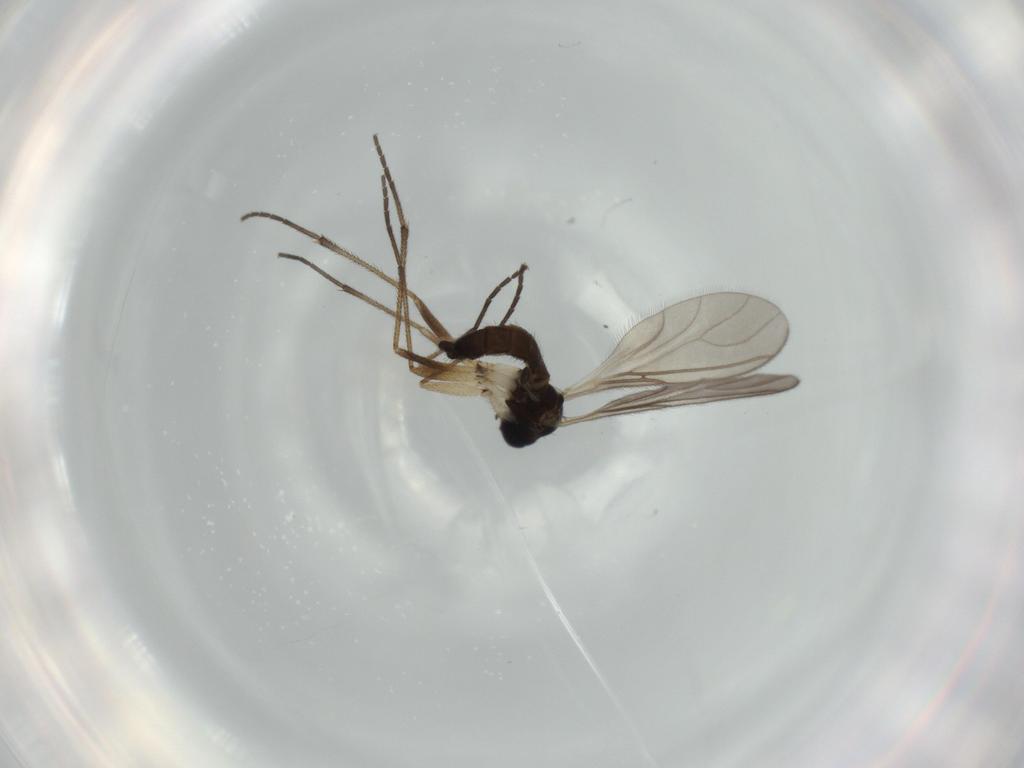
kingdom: Animalia
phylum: Arthropoda
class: Insecta
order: Diptera
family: Sciaridae
